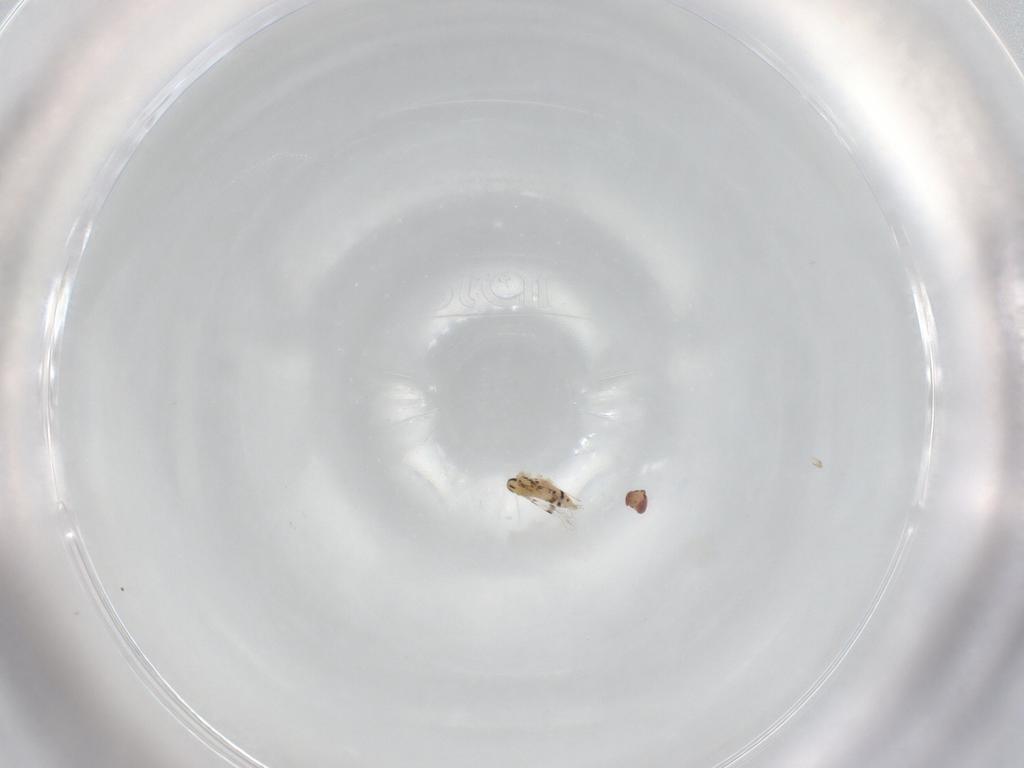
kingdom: Animalia
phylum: Arthropoda
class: Insecta
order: Hymenoptera
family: Trichogrammatidae
